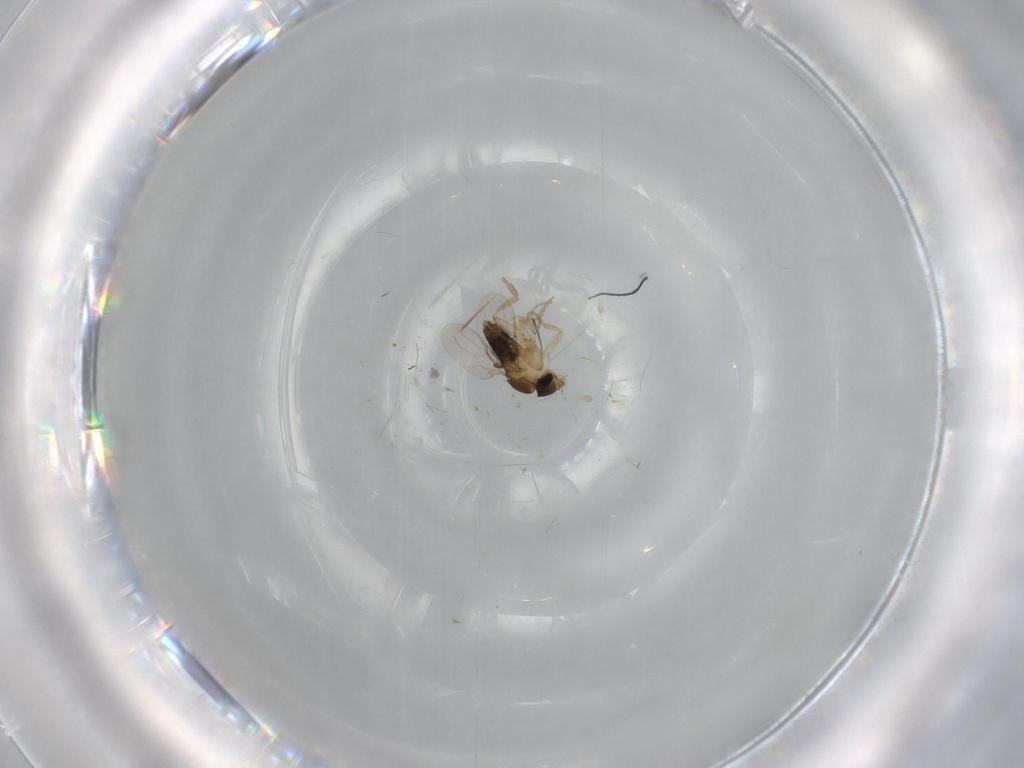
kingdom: Animalia
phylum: Arthropoda
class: Insecta
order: Diptera
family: Phoridae
